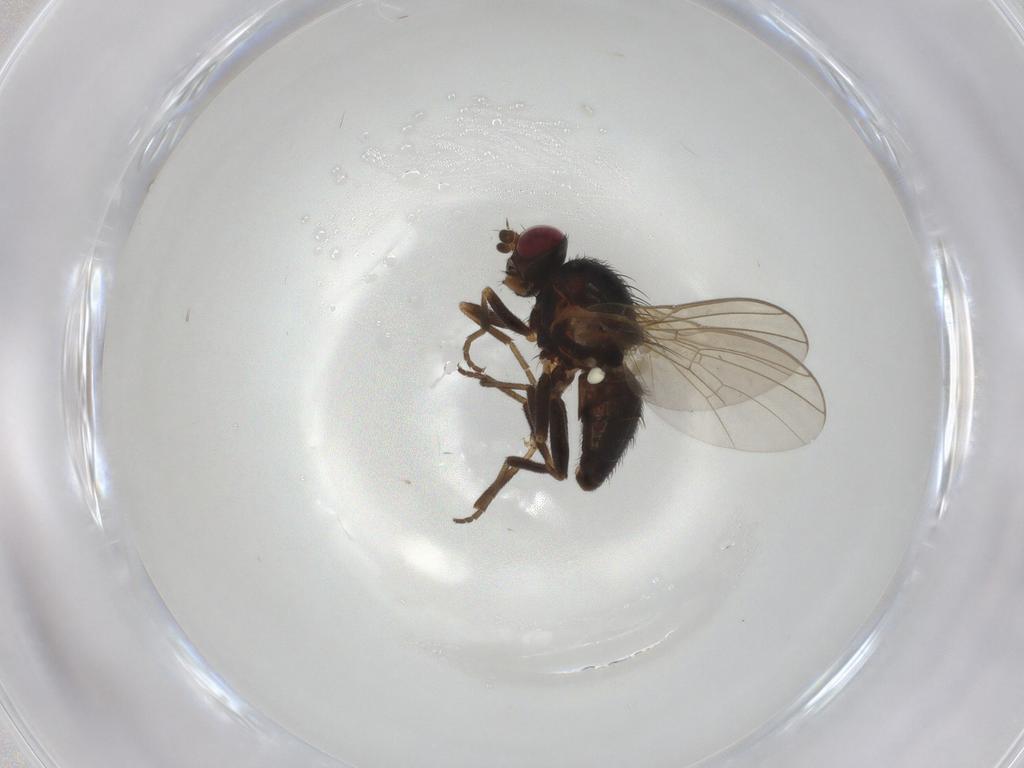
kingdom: Animalia
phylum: Arthropoda
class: Insecta
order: Diptera
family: Agromyzidae
